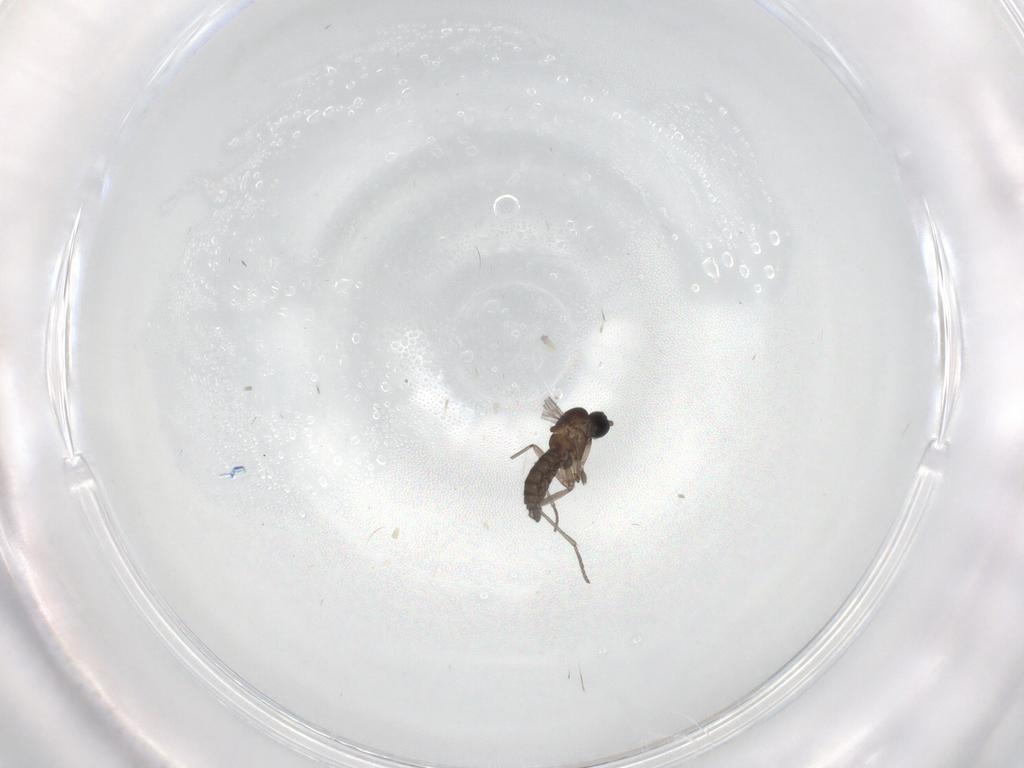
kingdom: Animalia
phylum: Arthropoda
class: Insecta
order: Diptera
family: Sciaridae
